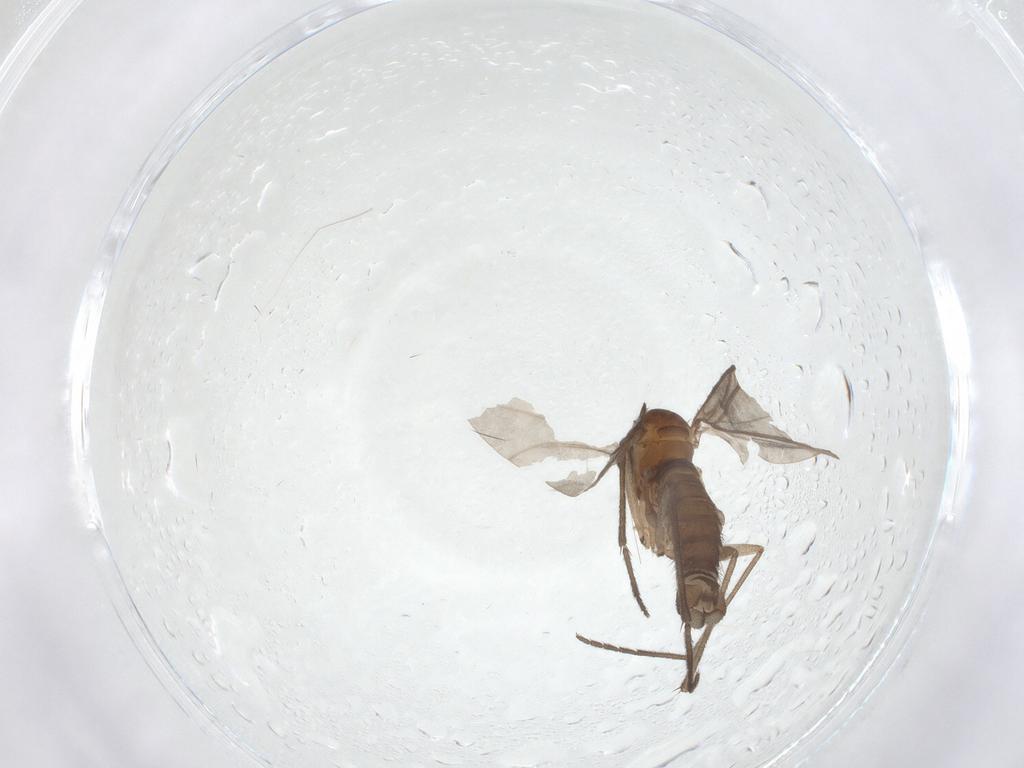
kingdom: Animalia
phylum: Arthropoda
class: Insecta
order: Diptera
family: Sciaridae
